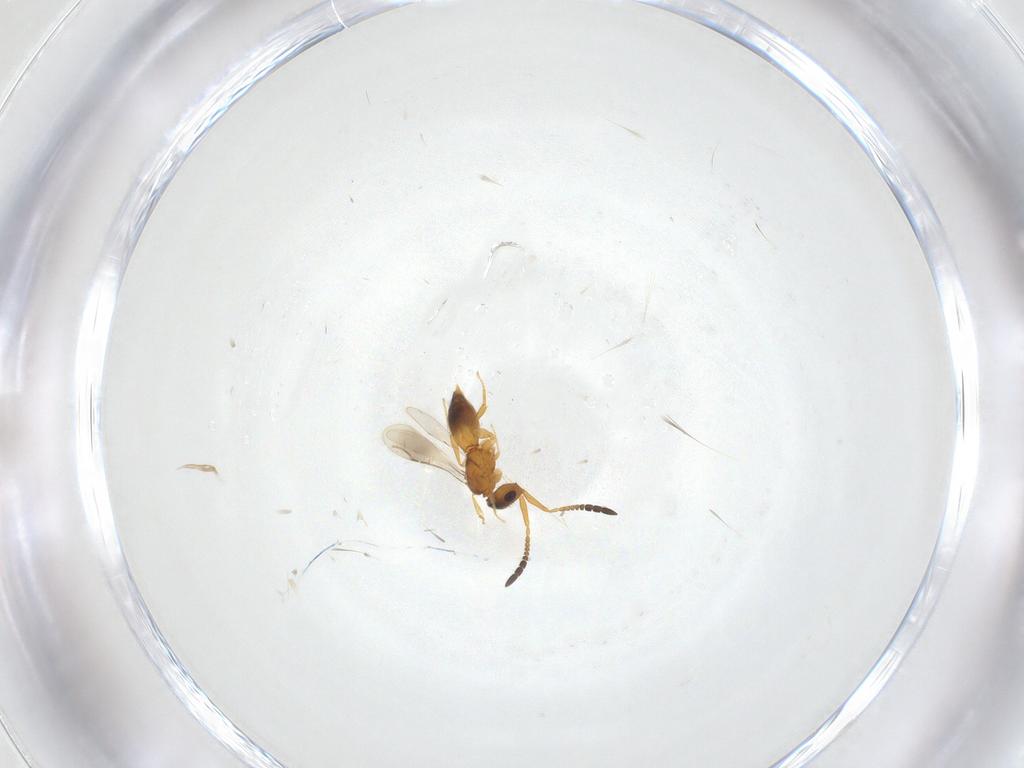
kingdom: Animalia
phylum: Arthropoda
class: Insecta
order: Hymenoptera
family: Ceraphronidae
